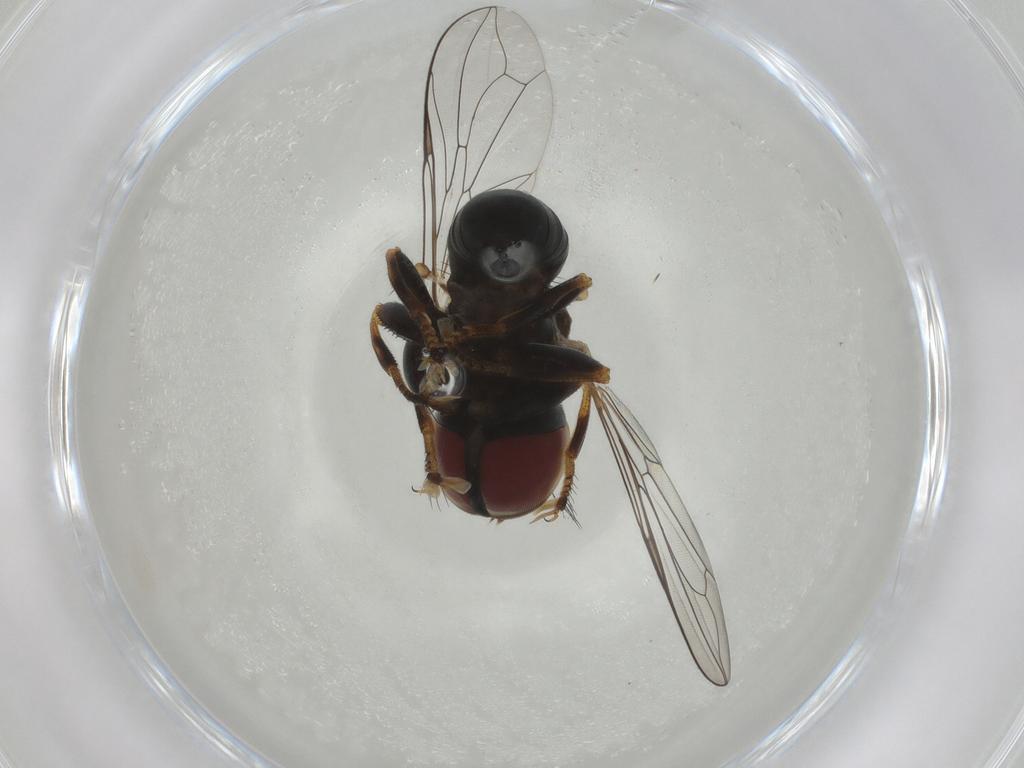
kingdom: Animalia
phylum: Arthropoda
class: Insecta
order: Diptera
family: Pipunculidae
